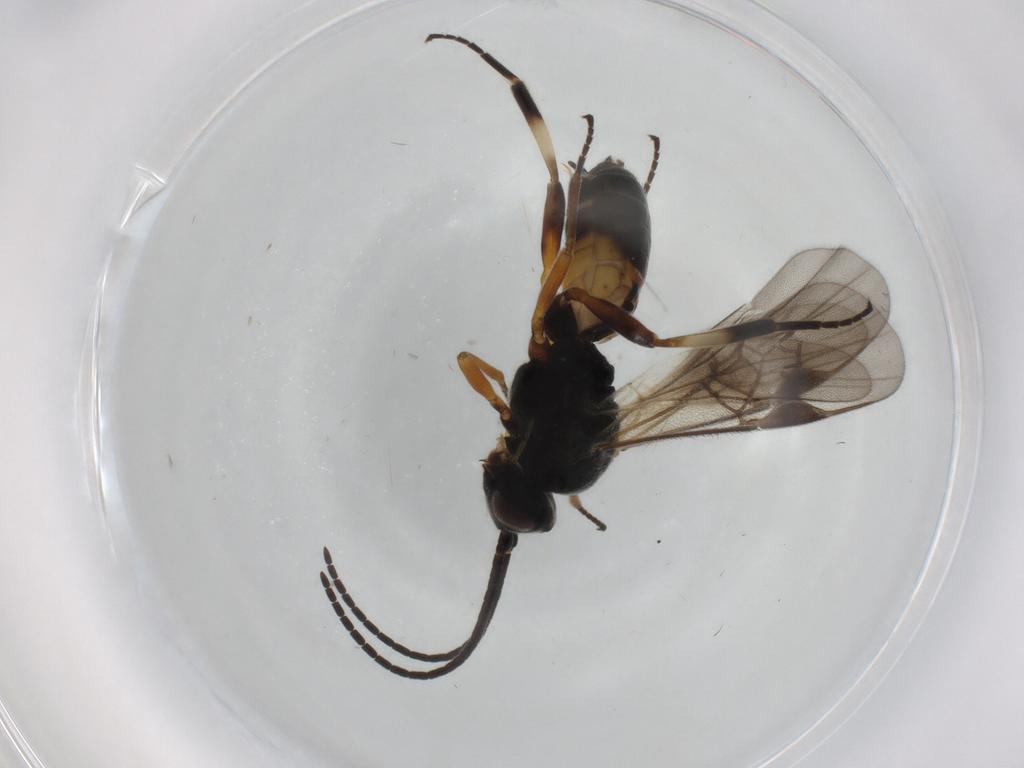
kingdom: Animalia
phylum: Arthropoda
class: Insecta
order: Hymenoptera
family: Braconidae
